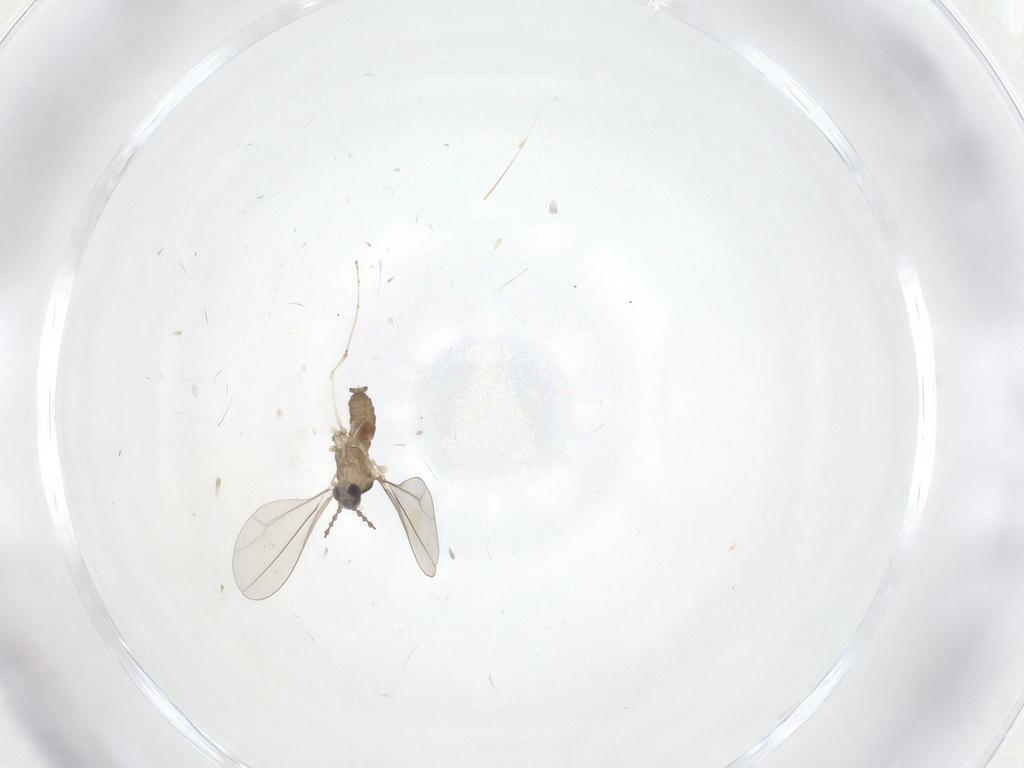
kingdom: Animalia
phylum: Arthropoda
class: Insecta
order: Diptera
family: Cecidomyiidae
